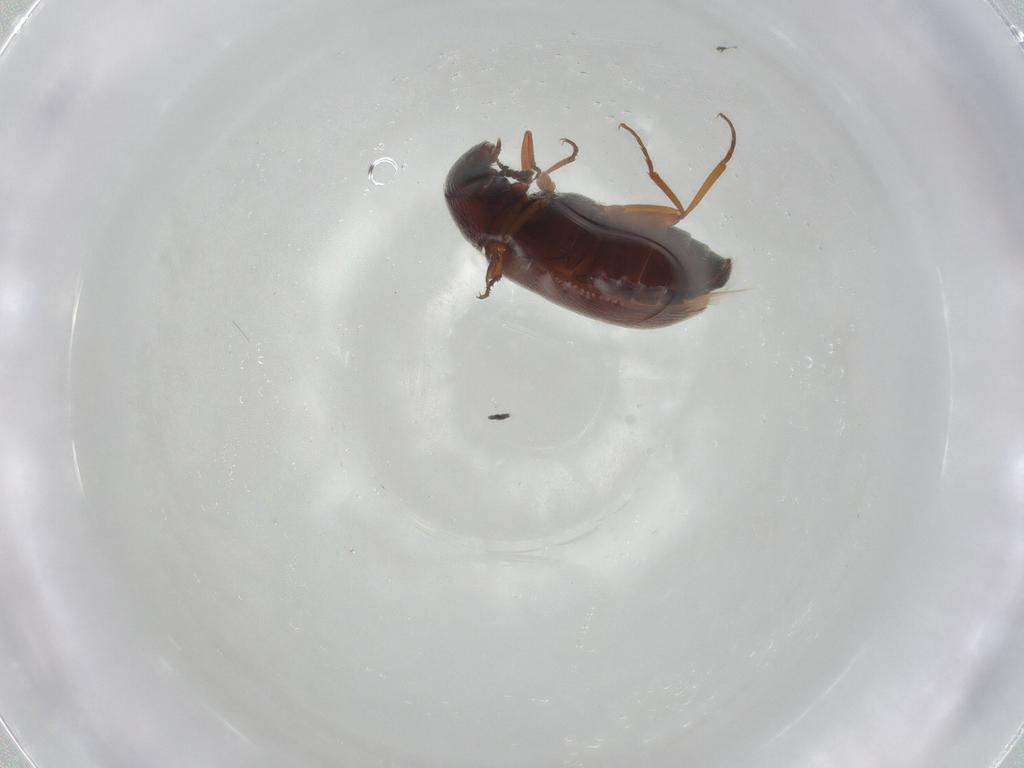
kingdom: Animalia
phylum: Arthropoda
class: Insecta
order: Coleoptera
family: Rhadalidae
